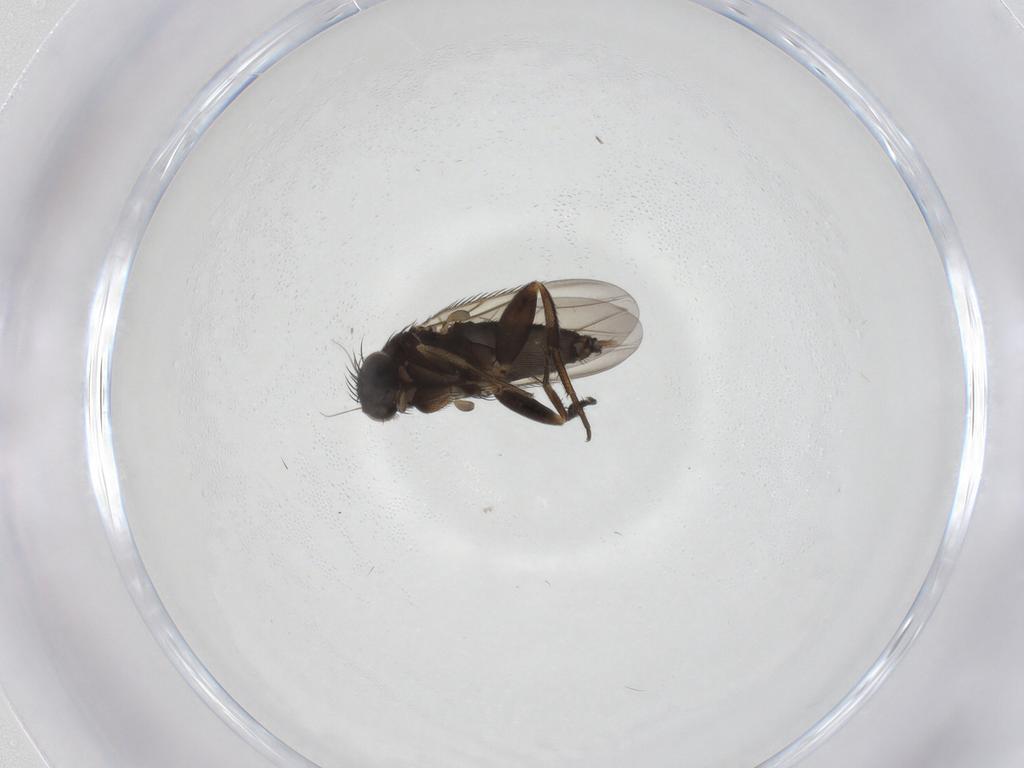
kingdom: Animalia
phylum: Arthropoda
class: Insecta
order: Diptera
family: Phoridae
